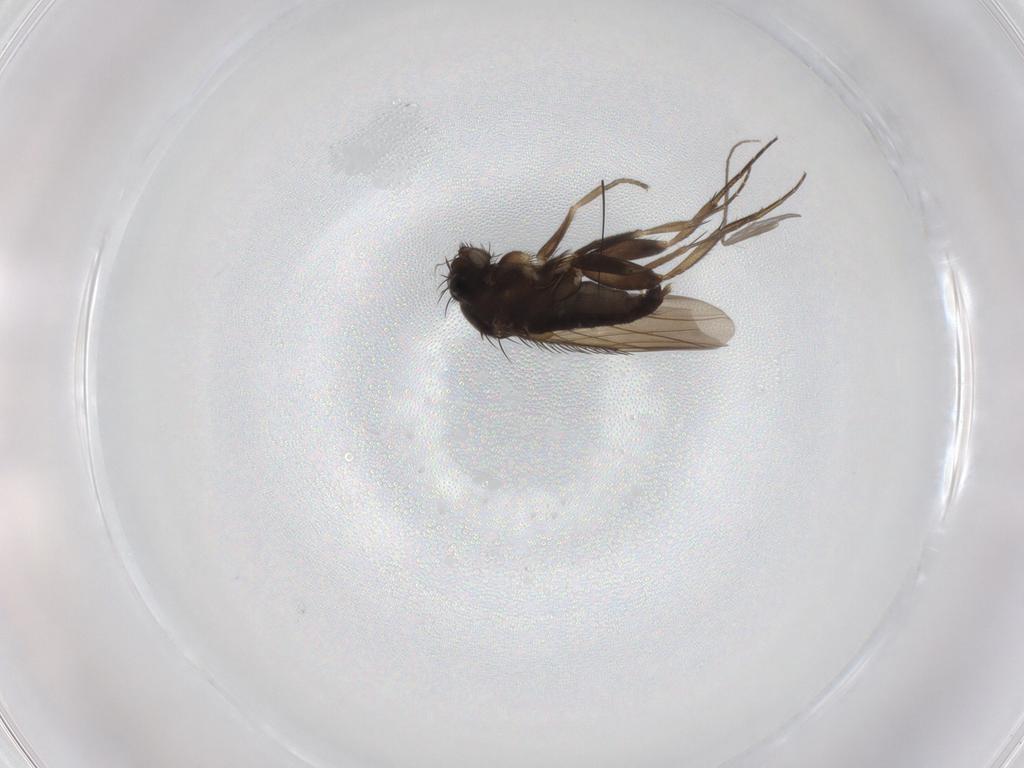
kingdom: Animalia
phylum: Arthropoda
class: Insecta
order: Diptera
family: Phoridae
